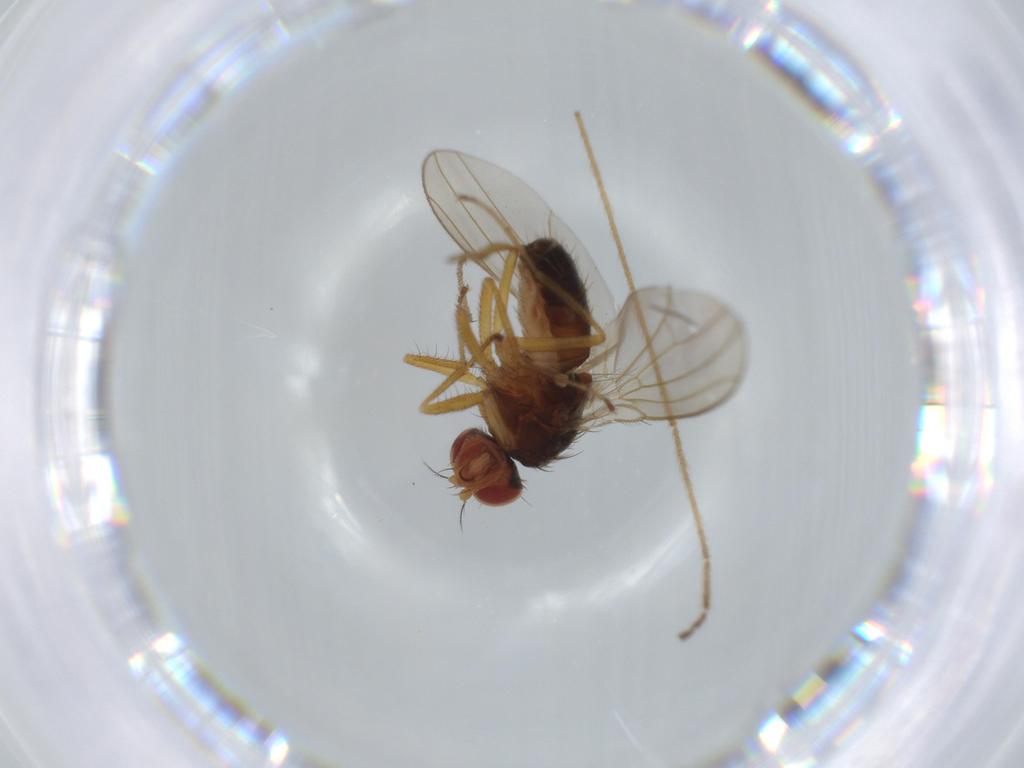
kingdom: Animalia
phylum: Arthropoda
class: Insecta
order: Diptera
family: Drosophilidae
